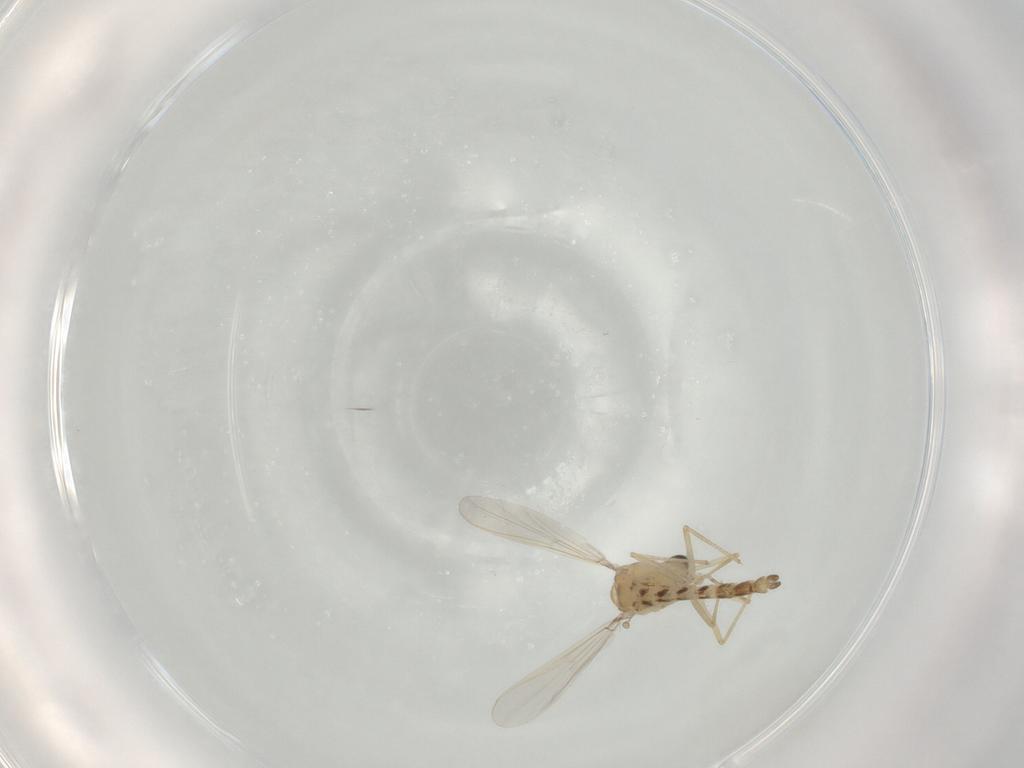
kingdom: Animalia
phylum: Arthropoda
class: Insecta
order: Diptera
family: Chironomidae
